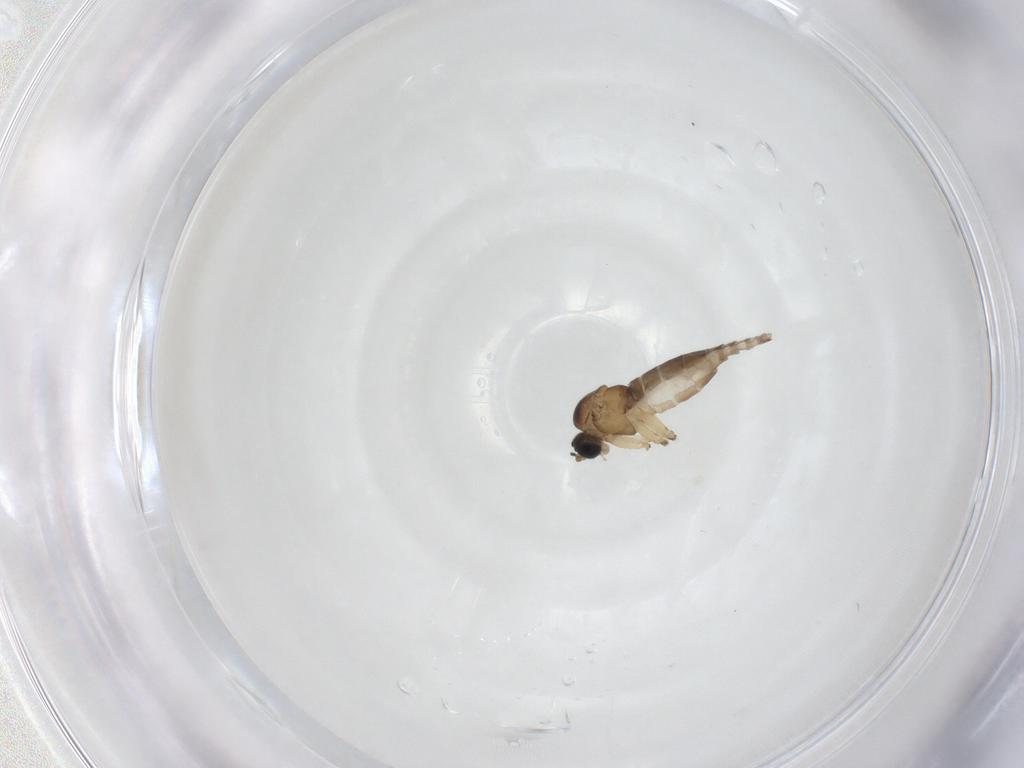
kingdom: Animalia
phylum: Arthropoda
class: Insecta
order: Diptera
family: Sciaridae
